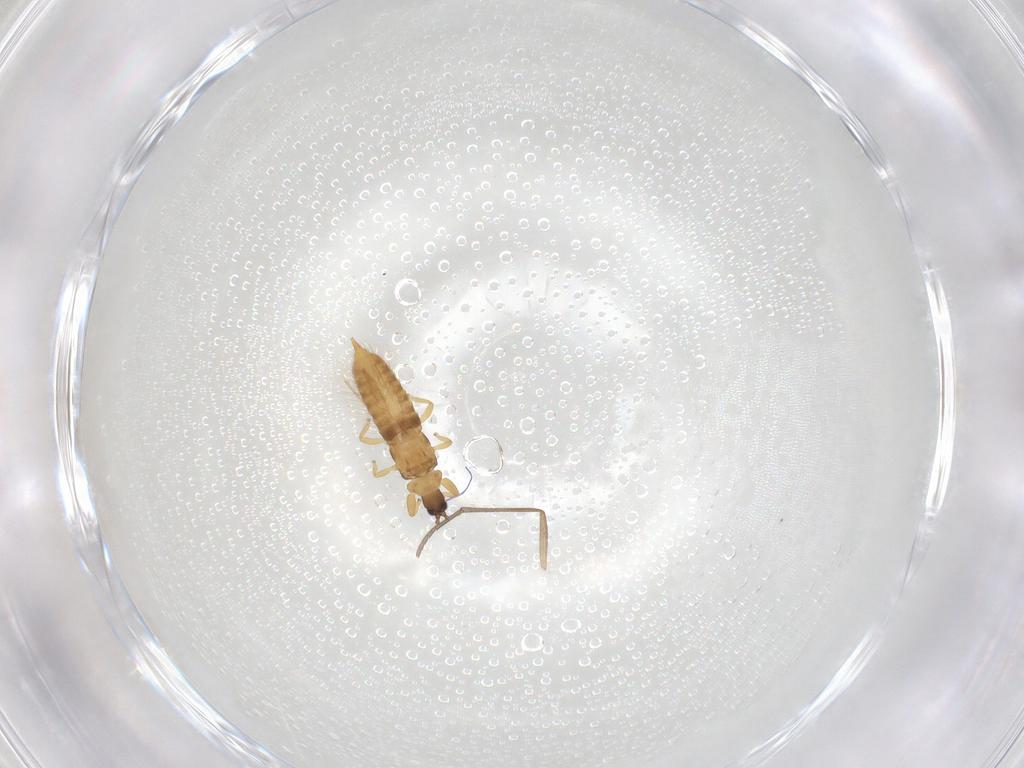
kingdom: Animalia
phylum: Arthropoda
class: Insecta
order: Thysanoptera
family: Phlaeothripidae
